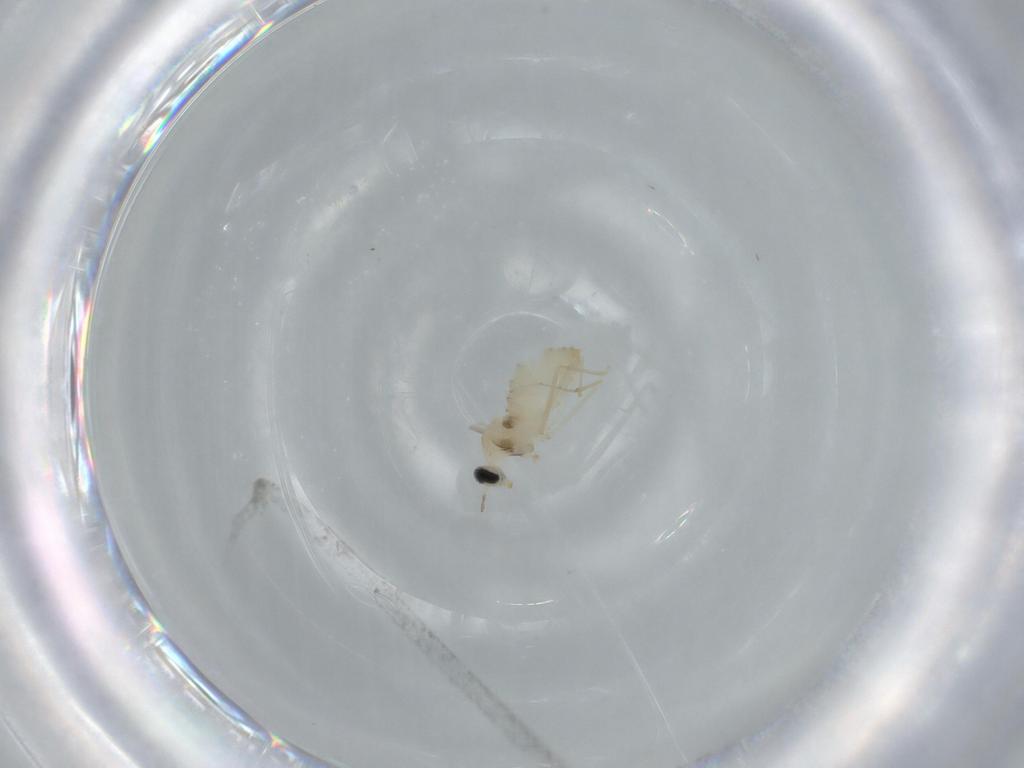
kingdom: Animalia
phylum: Arthropoda
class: Insecta
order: Diptera
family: Cecidomyiidae
